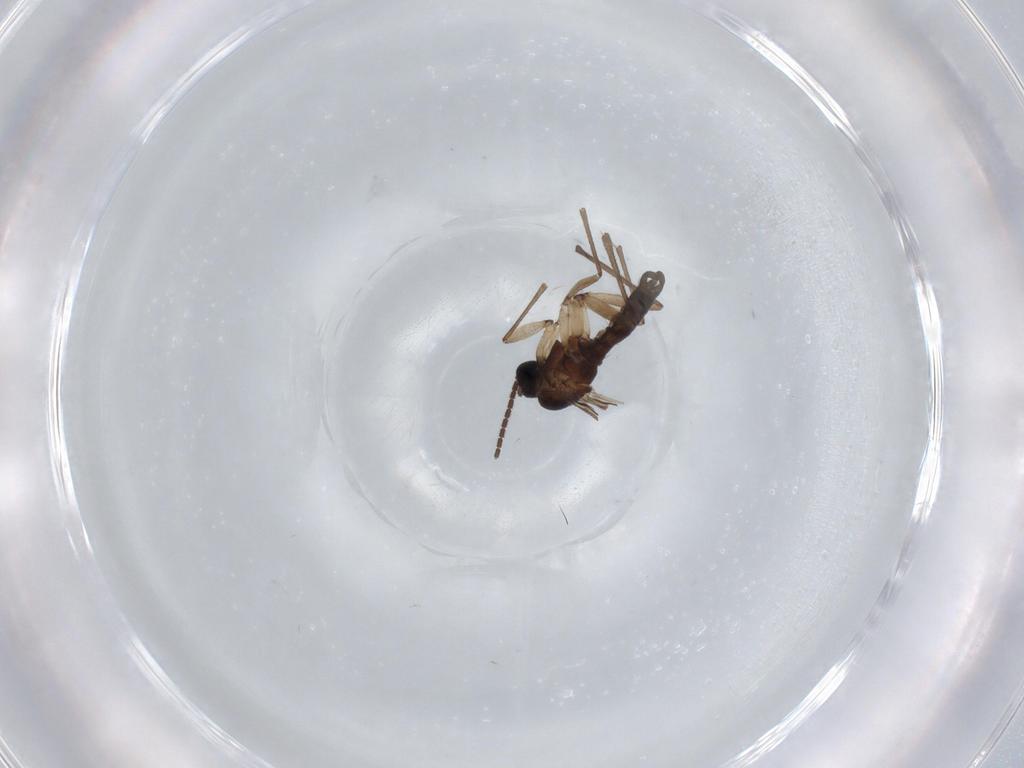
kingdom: Animalia
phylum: Arthropoda
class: Insecta
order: Diptera
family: Sciaridae
